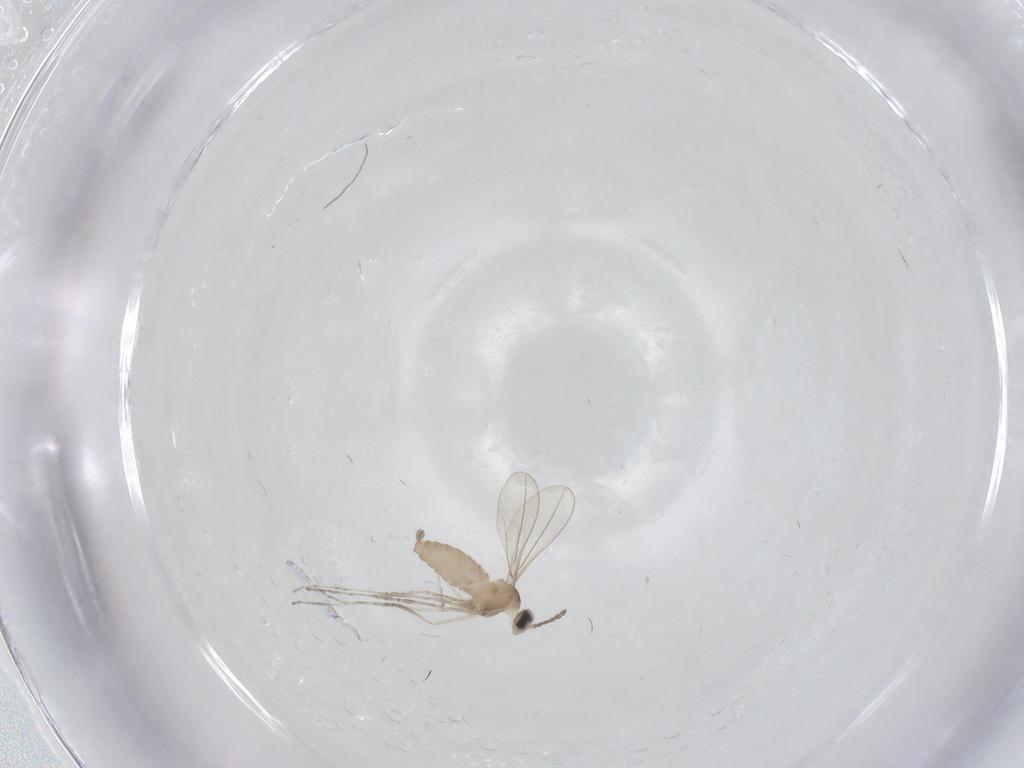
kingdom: Animalia
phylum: Arthropoda
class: Insecta
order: Diptera
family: Cecidomyiidae
